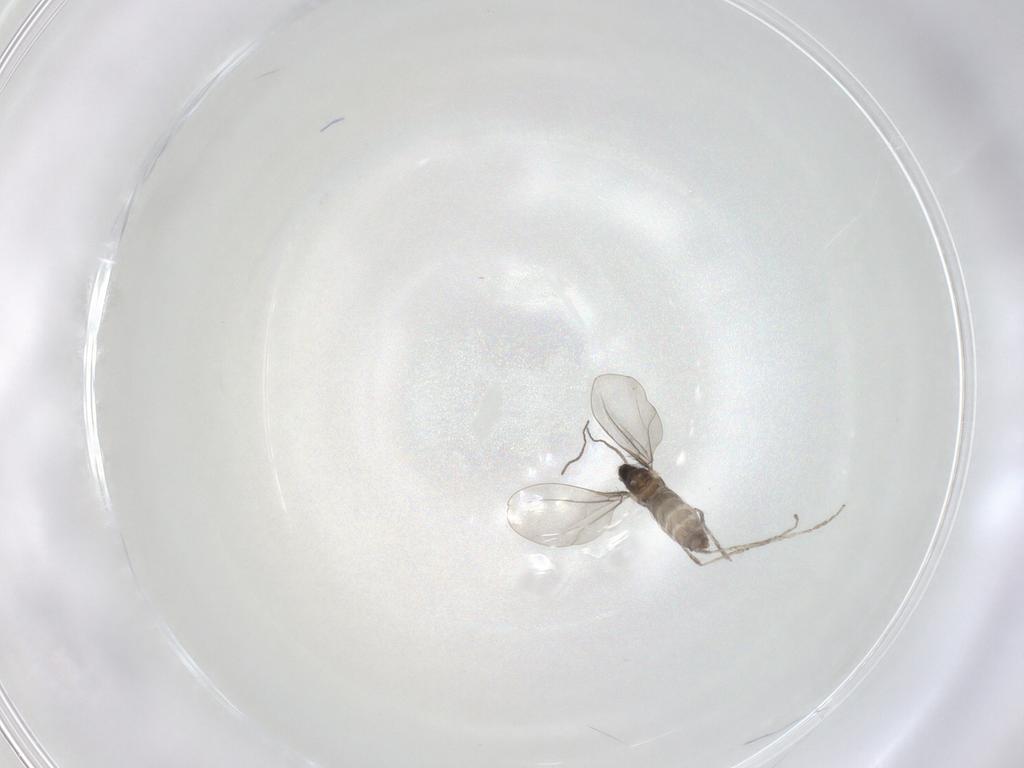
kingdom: Animalia
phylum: Arthropoda
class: Insecta
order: Diptera
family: Cecidomyiidae
